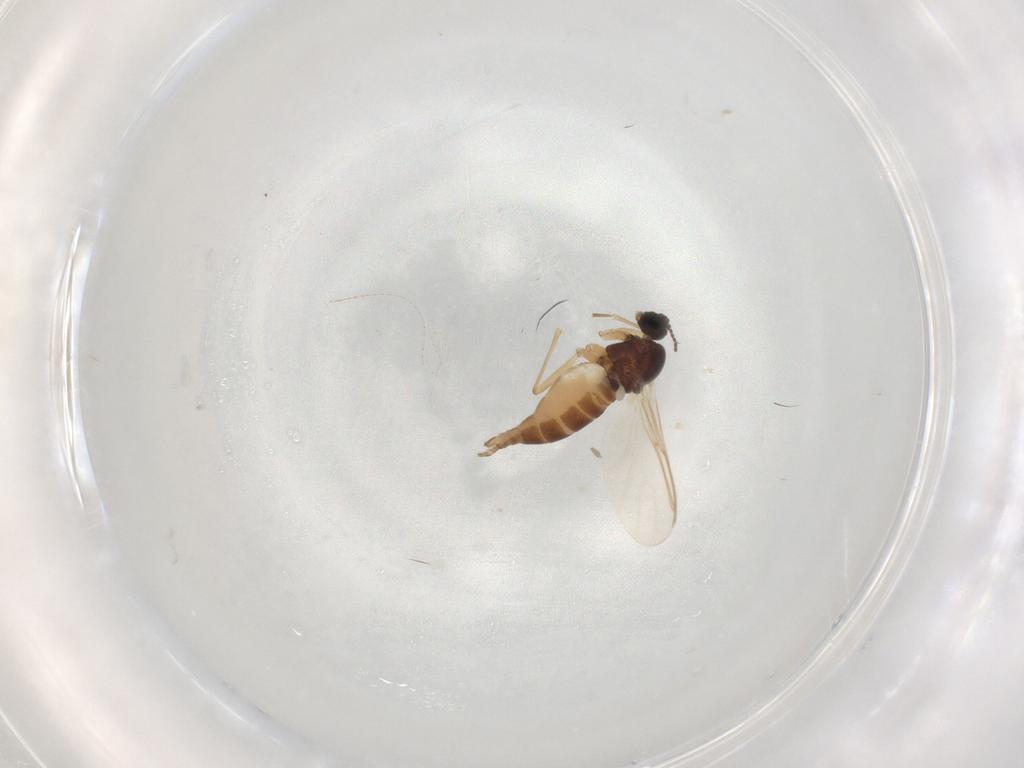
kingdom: Animalia
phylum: Arthropoda
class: Insecta
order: Diptera
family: Sciaridae
